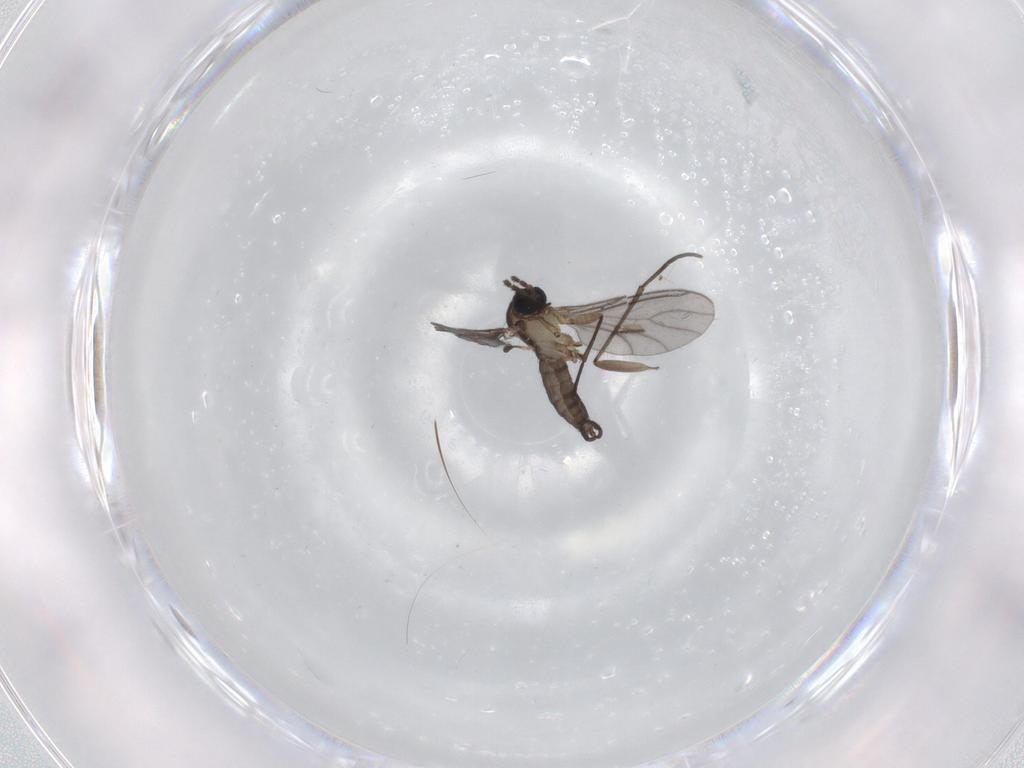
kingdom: Animalia
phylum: Arthropoda
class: Insecta
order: Diptera
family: Sciaridae
